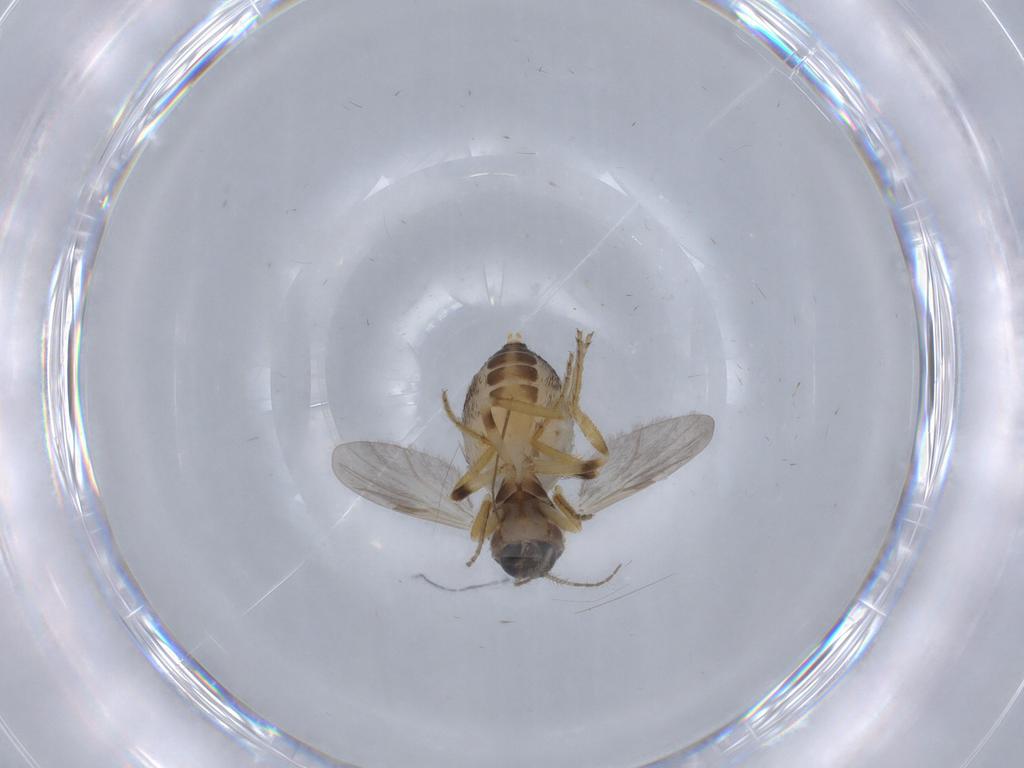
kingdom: Animalia
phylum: Arthropoda
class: Insecta
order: Diptera
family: Ceratopogonidae
